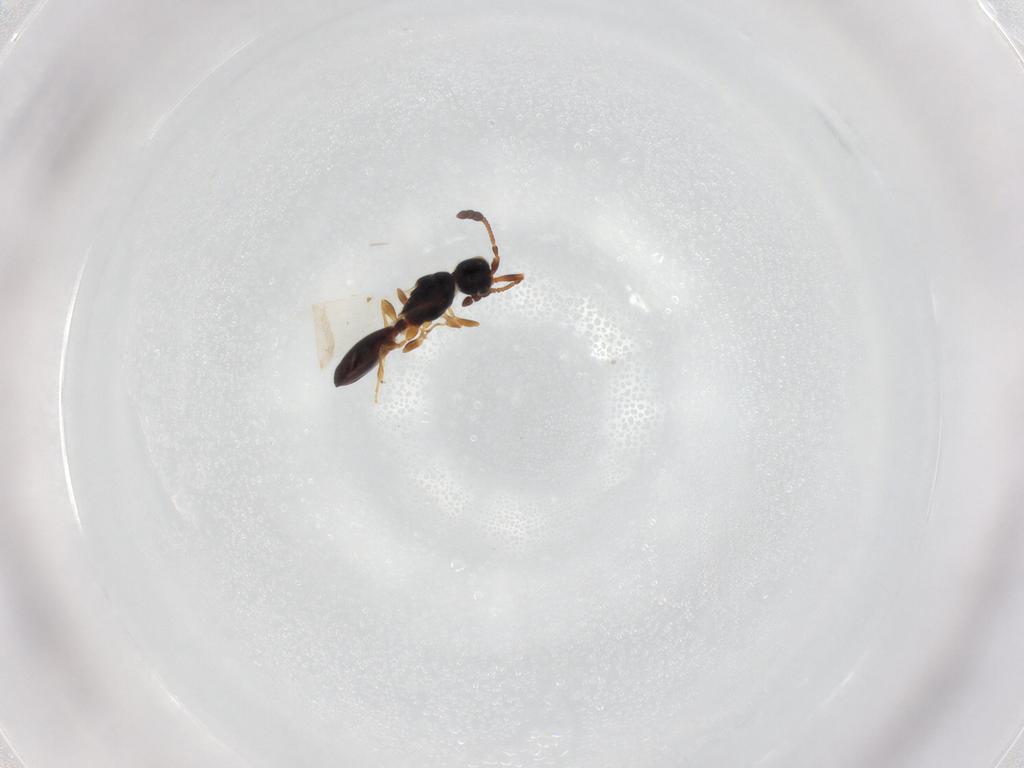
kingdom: Animalia
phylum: Arthropoda
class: Insecta
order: Hymenoptera
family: Diapriidae
